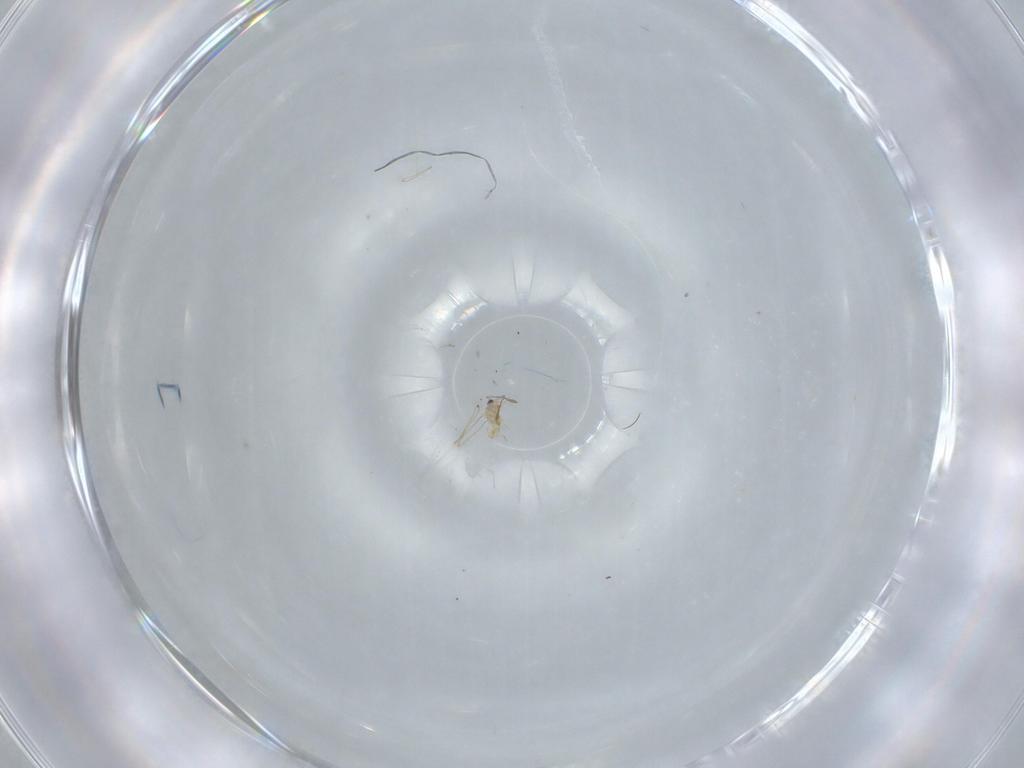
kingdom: Animalia
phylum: Arthropoda
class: Insecta
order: Hymenoptera
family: Mymaridae
